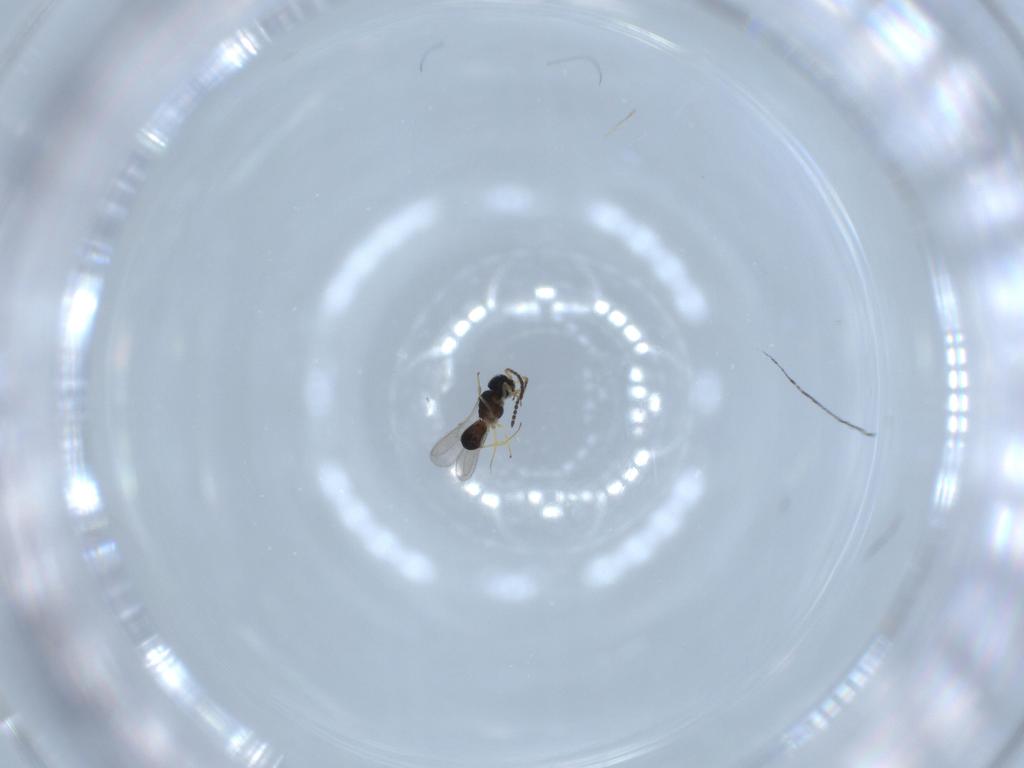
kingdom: Animalia
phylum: Arthropoda
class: Insecta
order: Hymenoptera
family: Scelionidae
